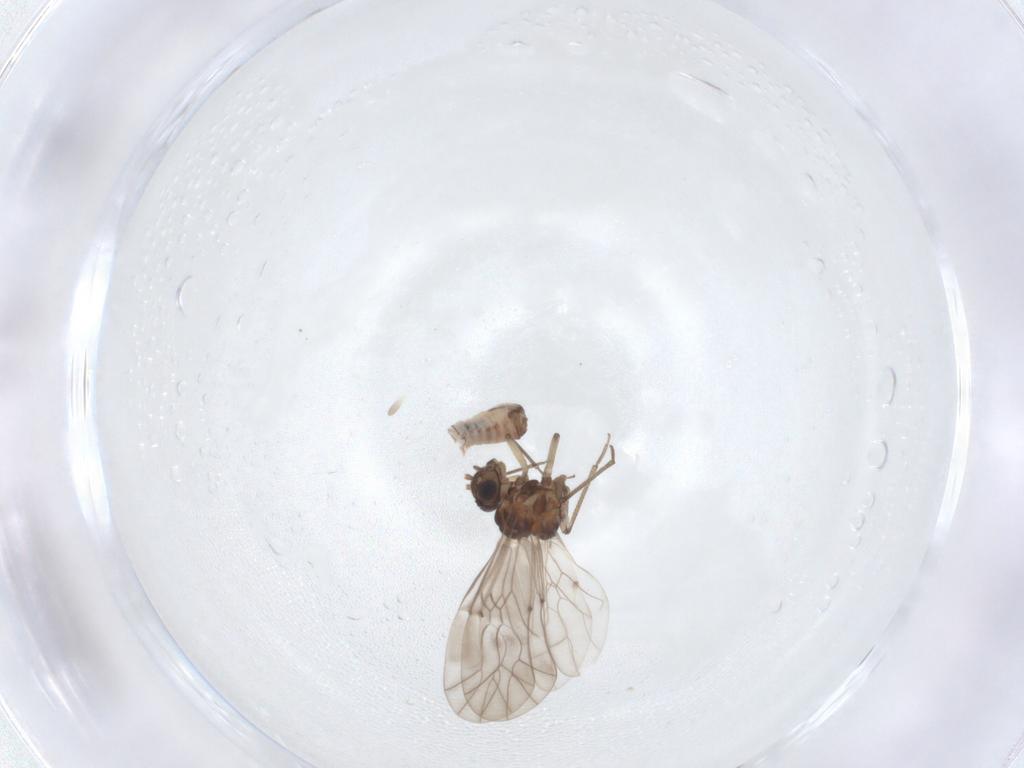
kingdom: Animalia
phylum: Arthropoda
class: Insecta
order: Psocodea
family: Lachesillidae
